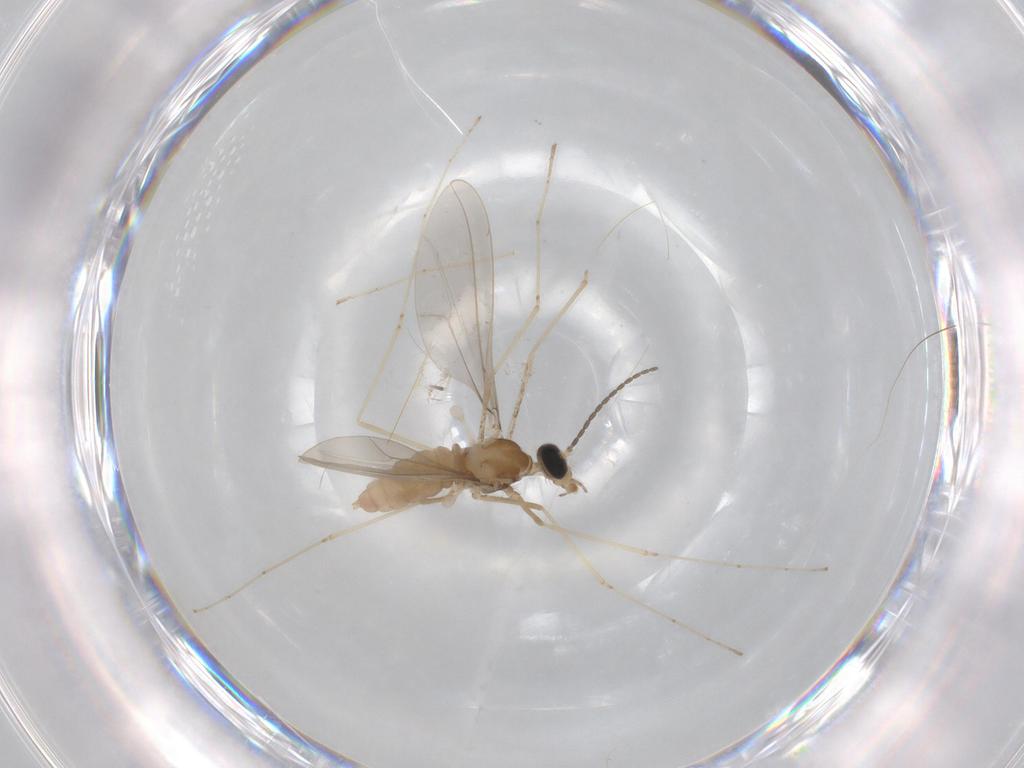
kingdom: Animalia
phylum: Arthropoda
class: Insecta
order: Diptera
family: Cecidomyiidae
